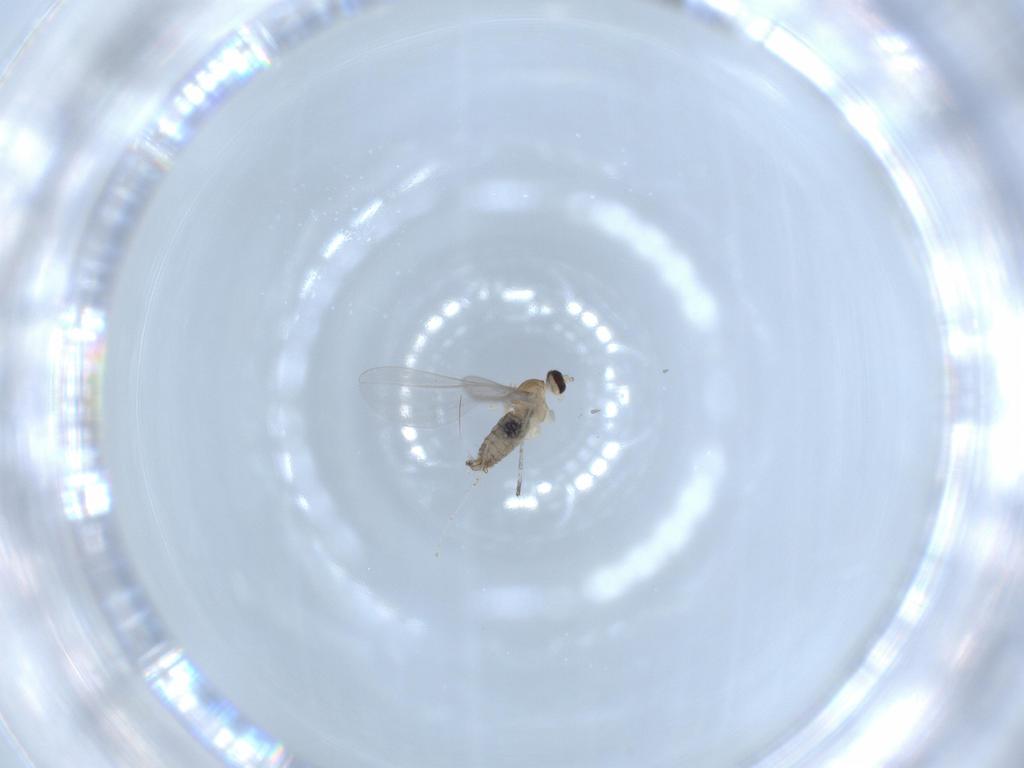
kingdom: Animalia
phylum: Arthropoda
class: Insecta
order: Diptera
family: Cecidomyiidae
